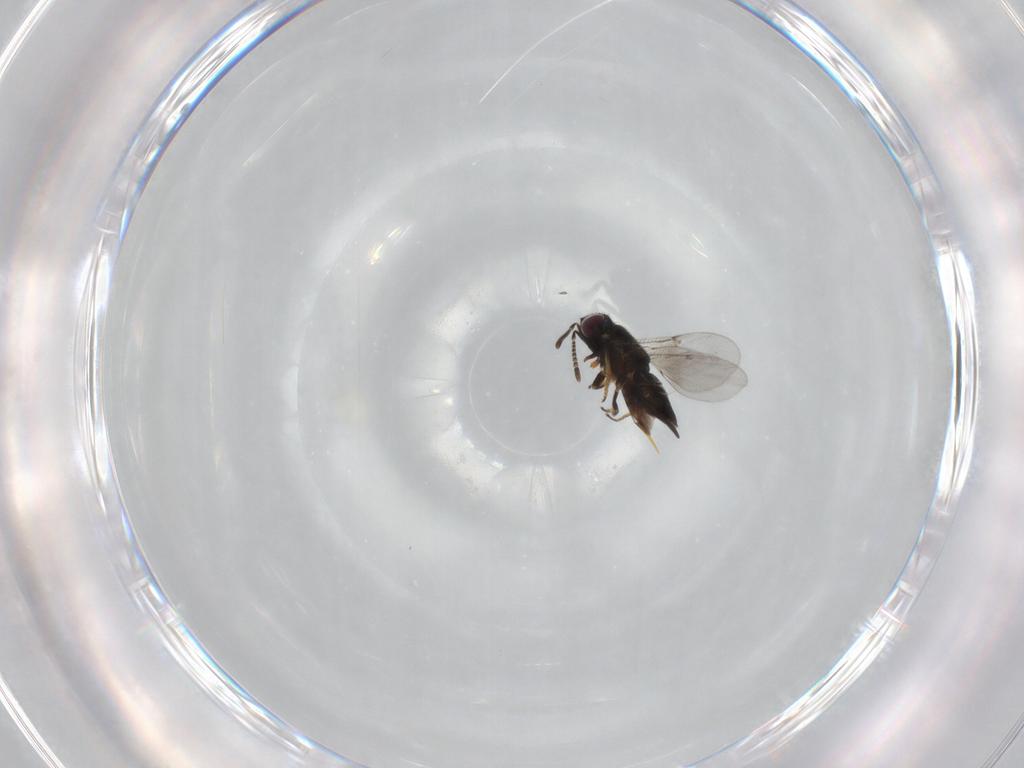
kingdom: Animalia
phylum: Arthropoda
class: Insecta
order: Hymenoptera
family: Encyrtidae
